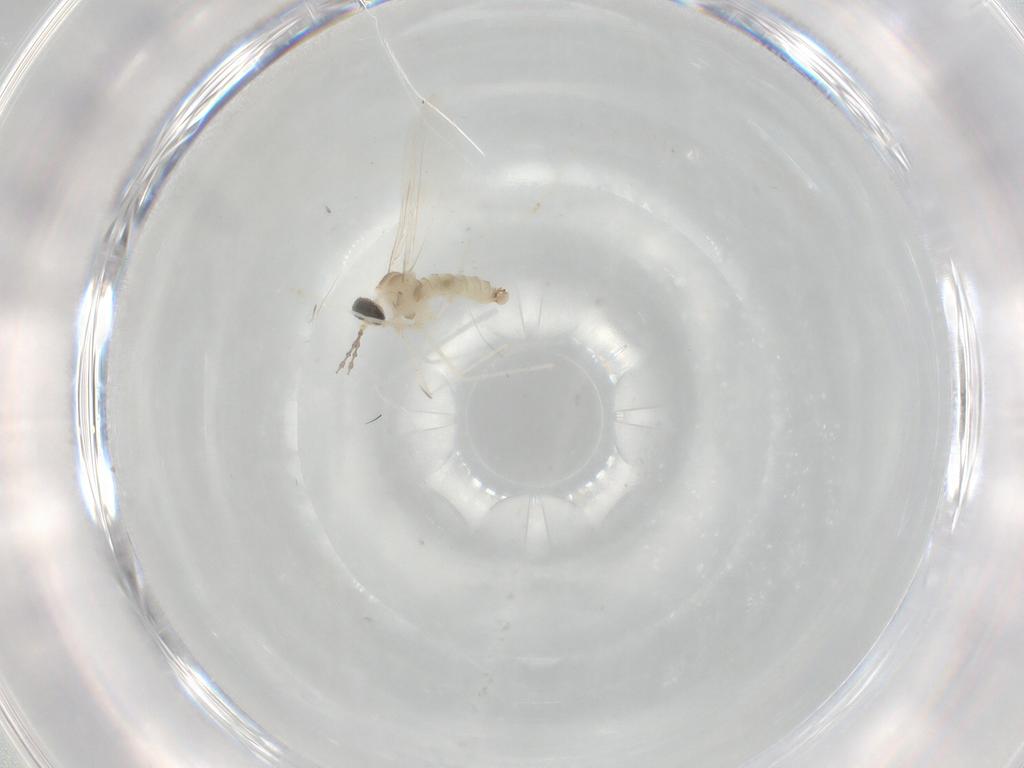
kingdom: Animalia
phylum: Arthropoda
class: Insecta
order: Diptera
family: Cecidomyiidae
